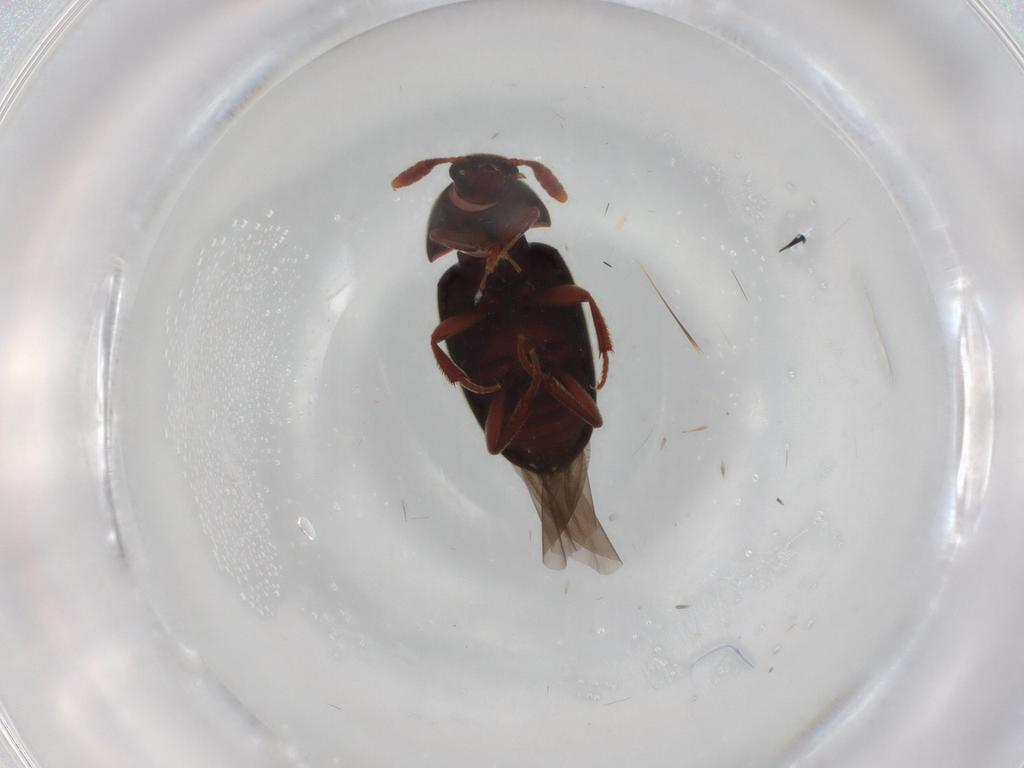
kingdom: Animalia
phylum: Arthropoda
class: Insecta
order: Coleoptera
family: Leiodidae
